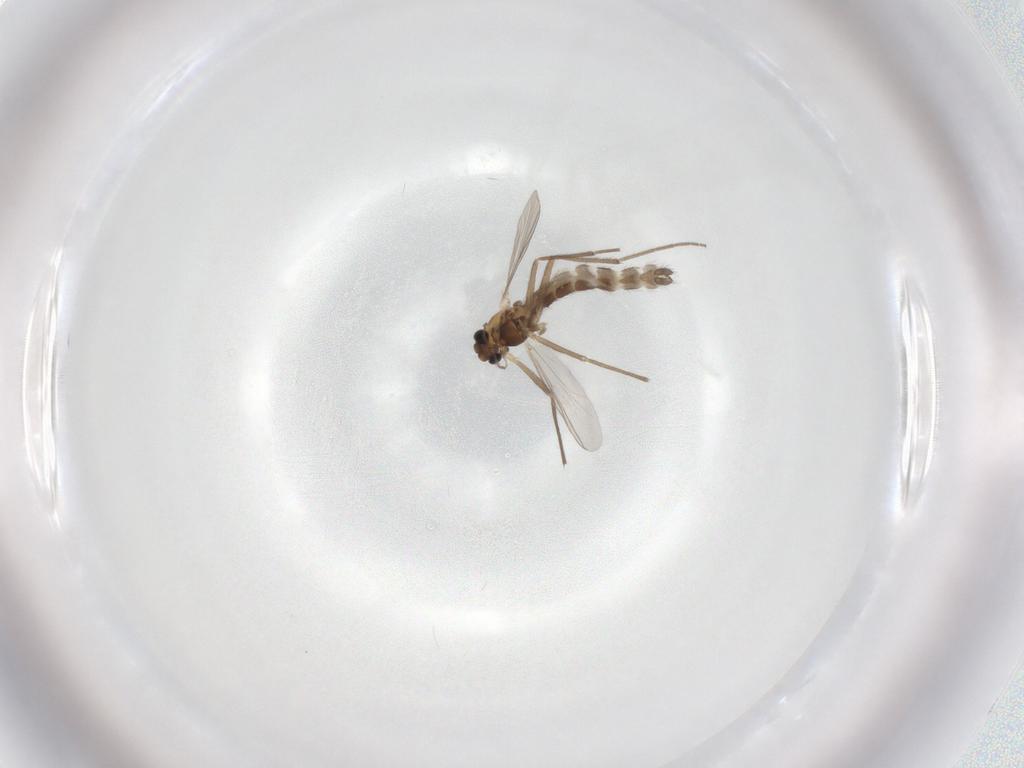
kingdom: Animalia
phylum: Arthropoda
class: Insecta
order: Diptera
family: Chironomidae
